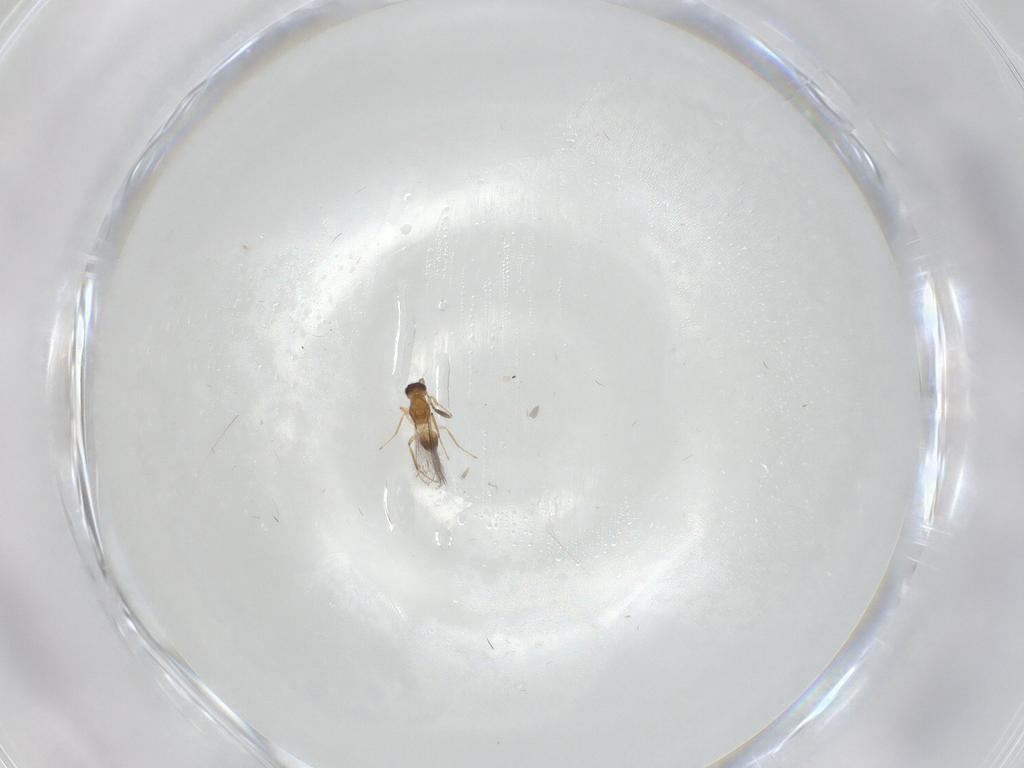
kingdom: Animalia
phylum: Arthropoda
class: Insecta
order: Hymenoptera
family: Mymaridae
